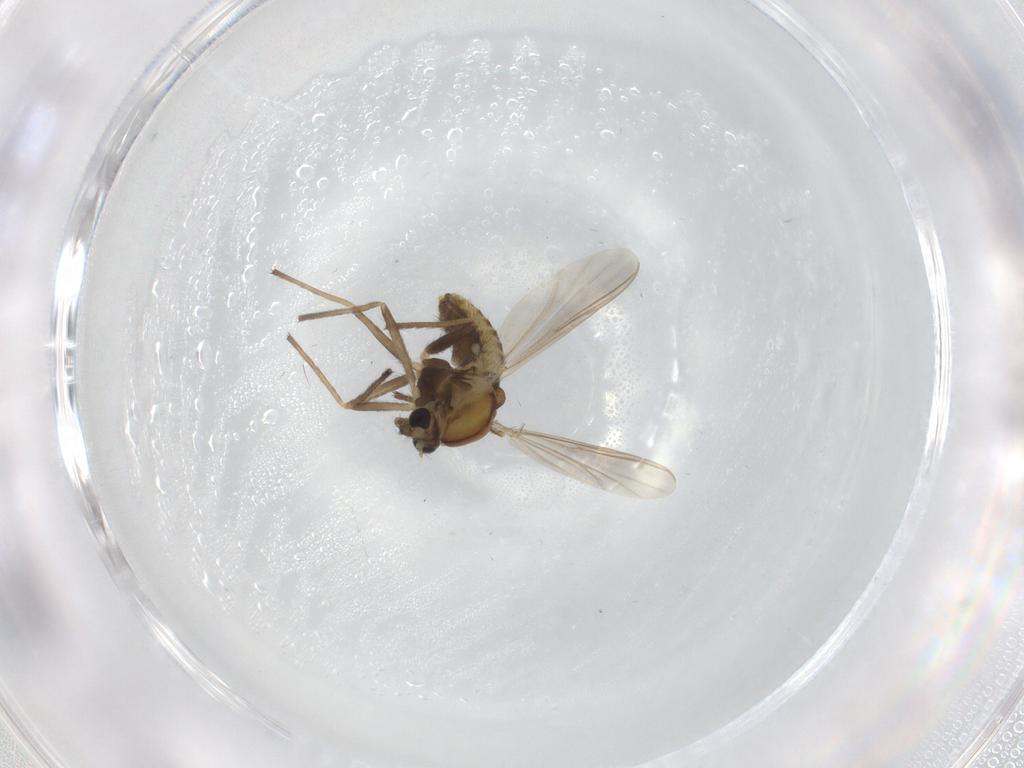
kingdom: Animalia
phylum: Arthropoda
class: Insecta
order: Diptera
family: Chironomidae
